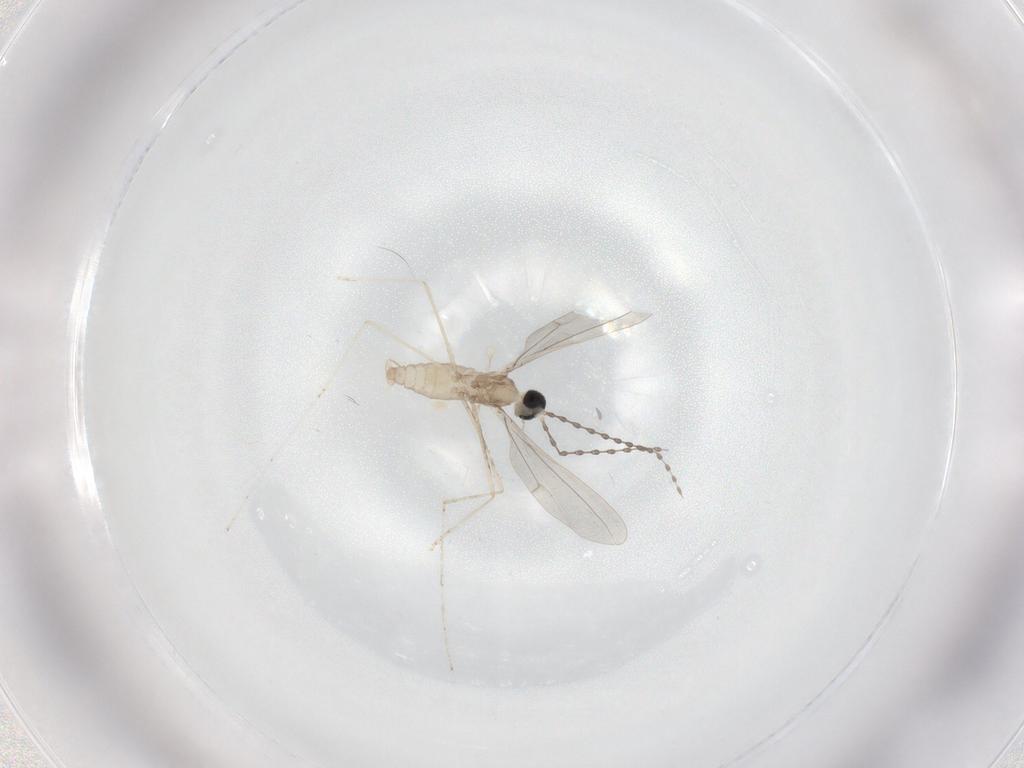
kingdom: Animalia
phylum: Arthropoda
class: Insecta
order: Diptera
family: Cecidomyiidae
